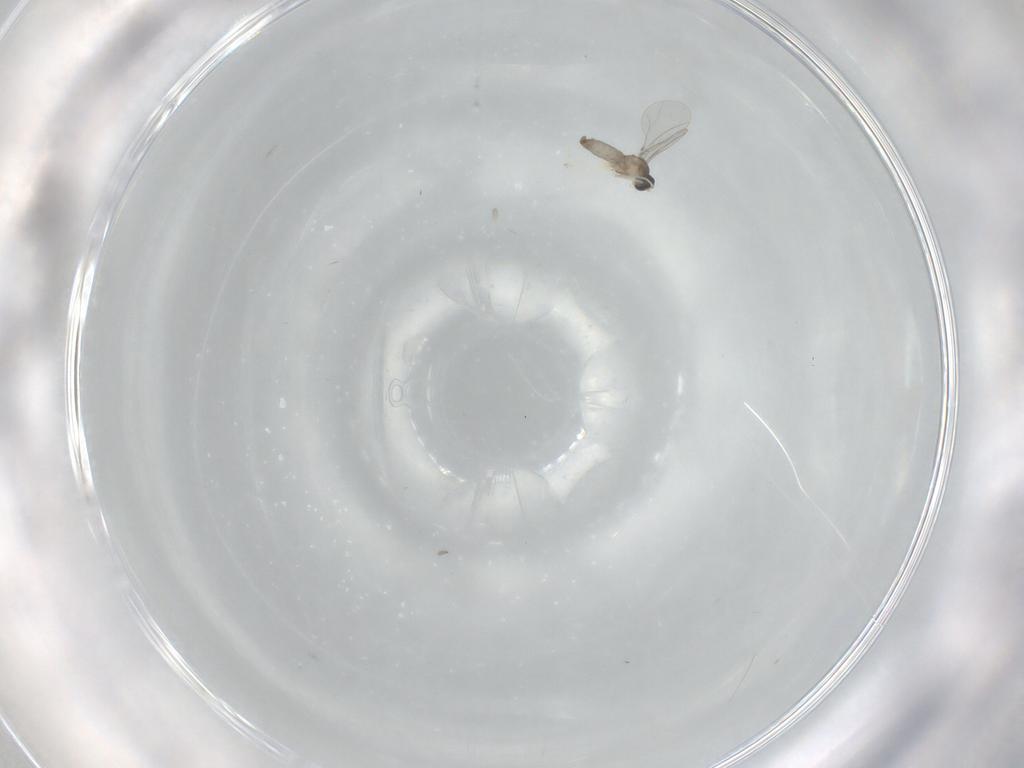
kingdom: Animalia
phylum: Arthropoda
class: Insecta
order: Diptera
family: Cecidomyiidae
